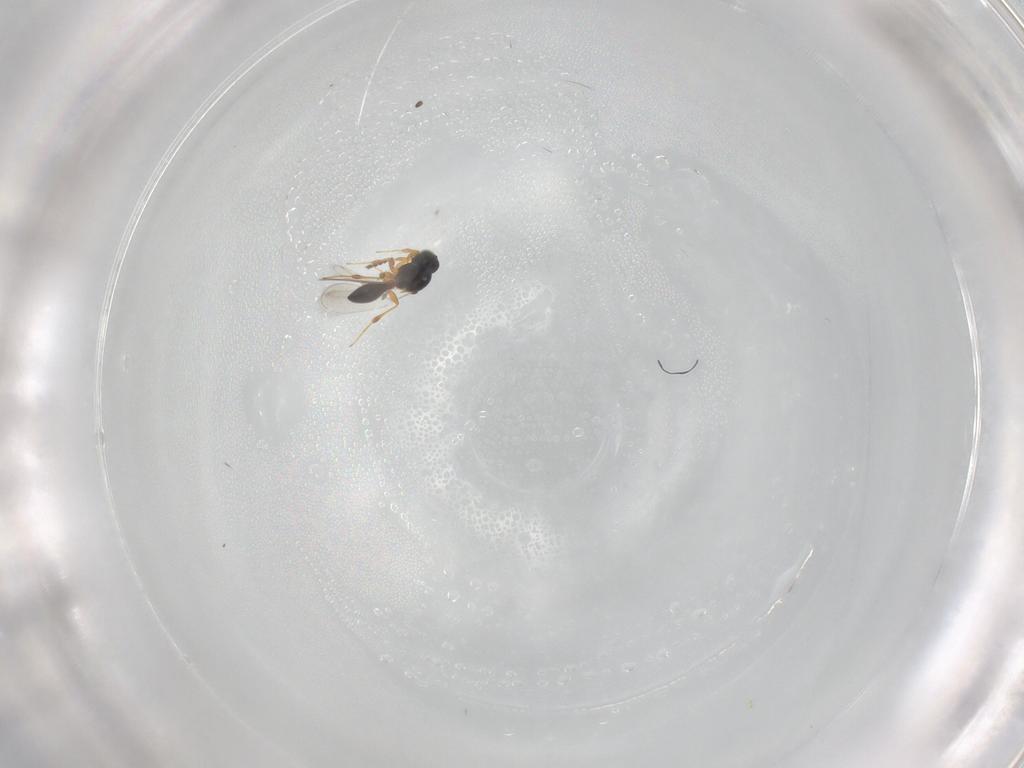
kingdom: Animalia
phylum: Arthropoda
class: Insecta
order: Hymenoptera
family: Platygastridae
